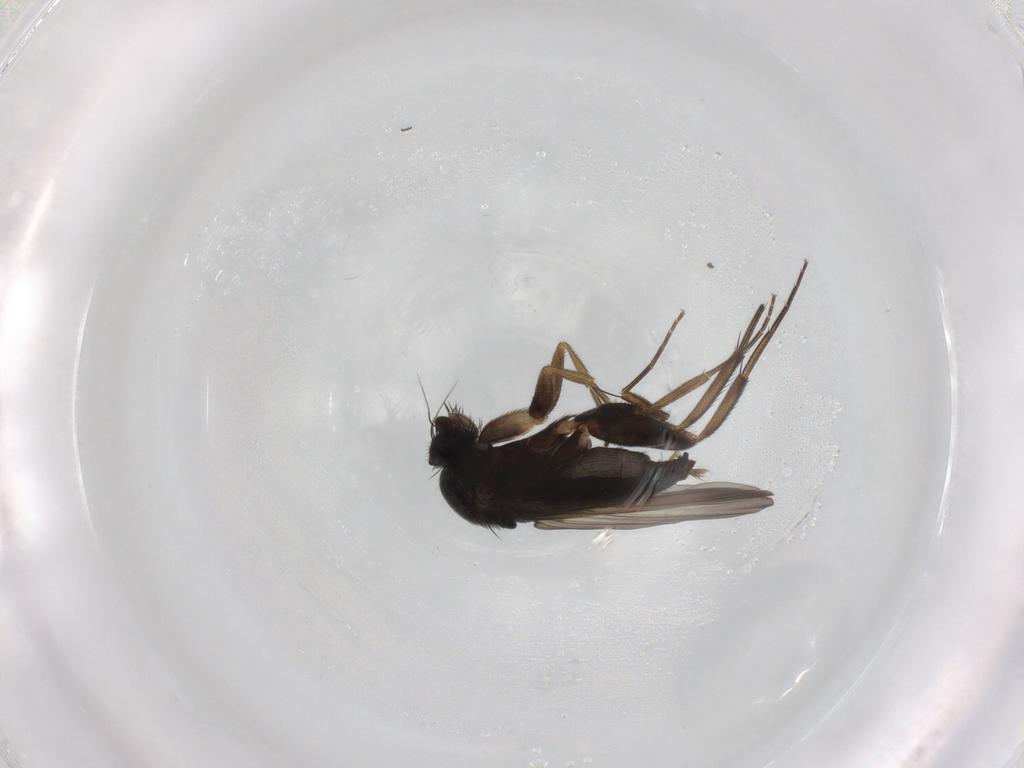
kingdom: Animalia
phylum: Arthropoda
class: Insecta
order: Diptera
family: Phoridae
